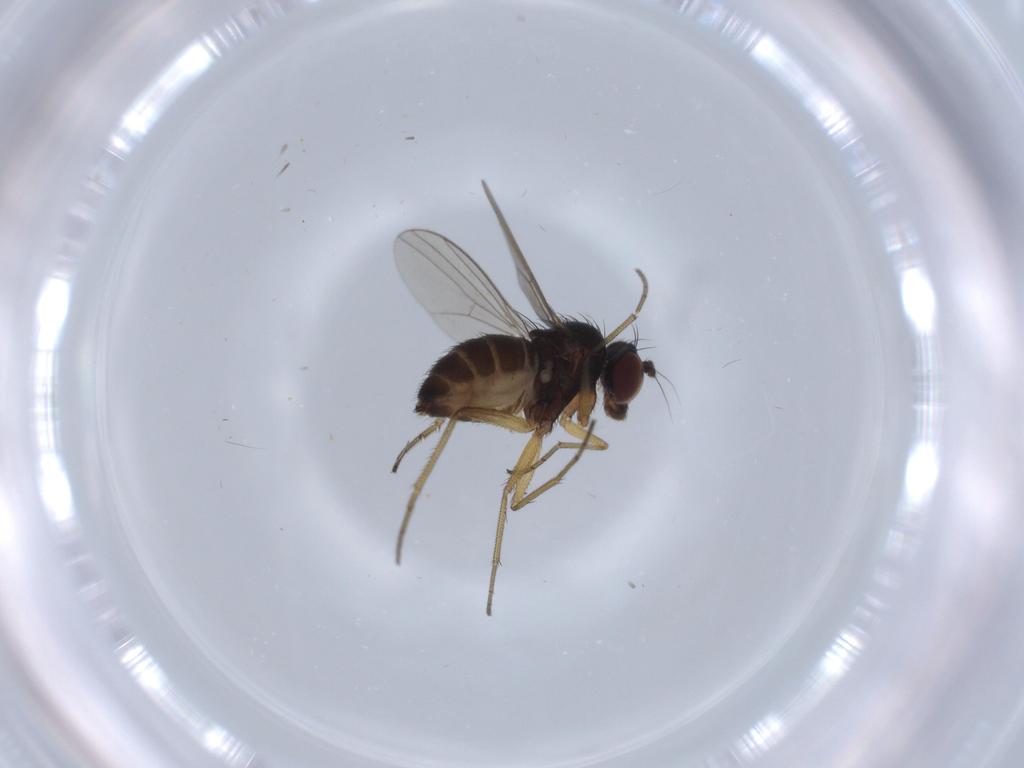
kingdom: Animalia
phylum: Arthropoda
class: Insecta
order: Diptera
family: Dolichopodidae
